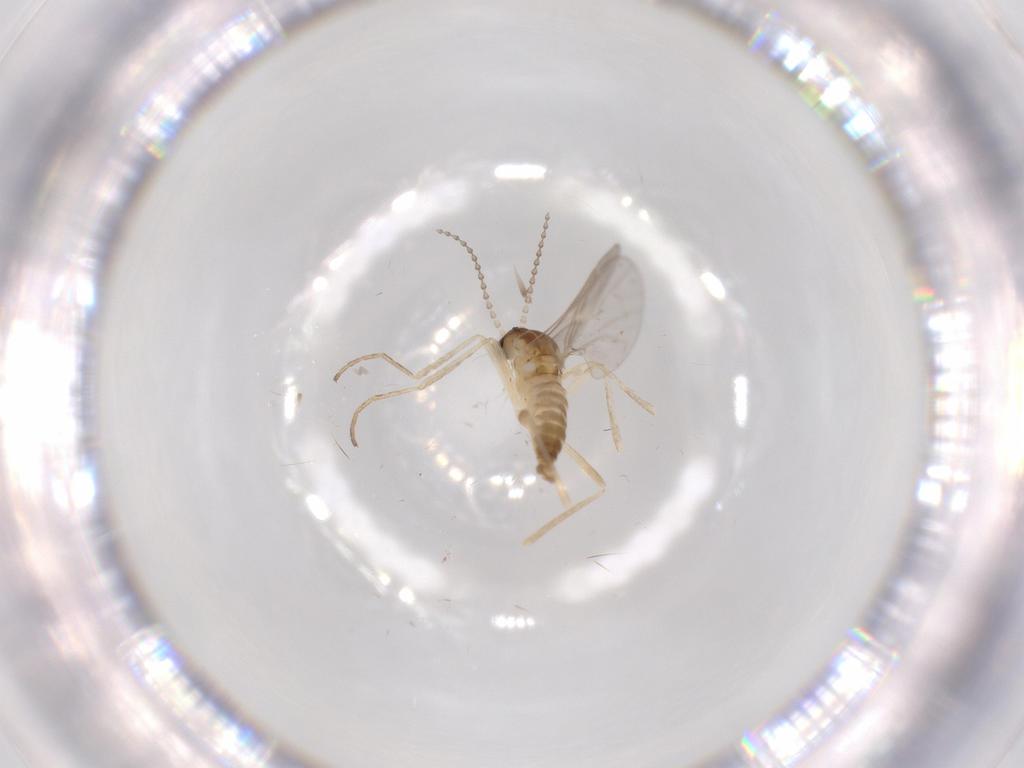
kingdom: Animalia
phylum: Arthropoda
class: Insecta
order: Diptera
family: Cecidomyiidae
